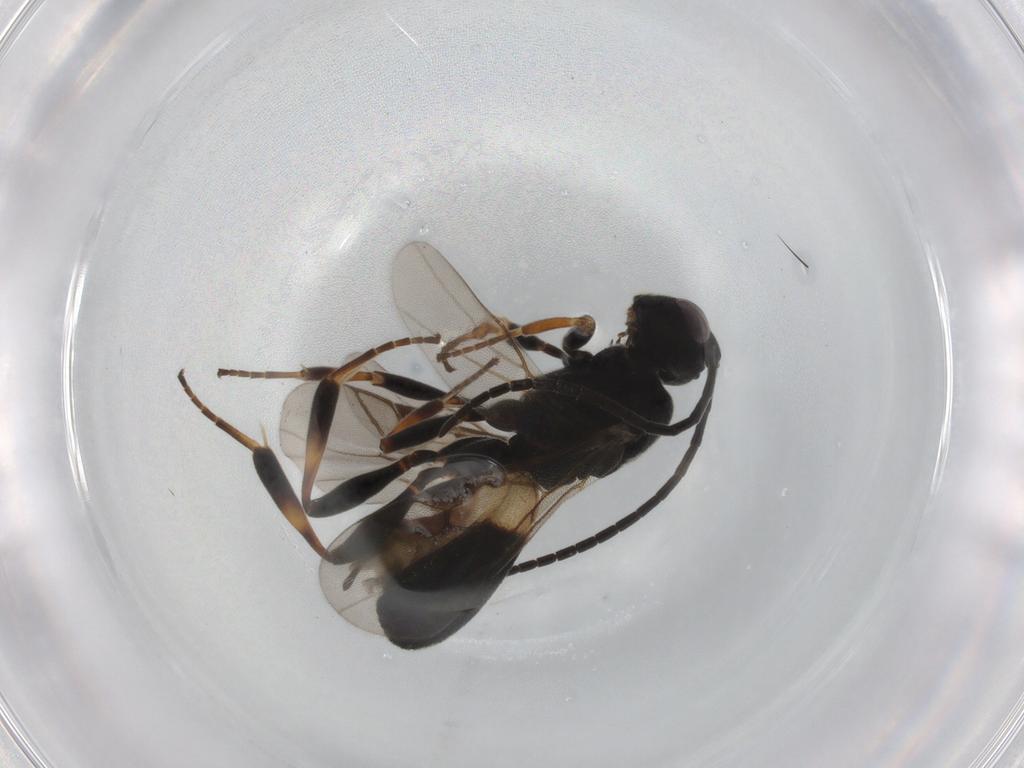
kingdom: Animalia
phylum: Arthropoda
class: Insecta
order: Hymenoptera
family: Braconidae
